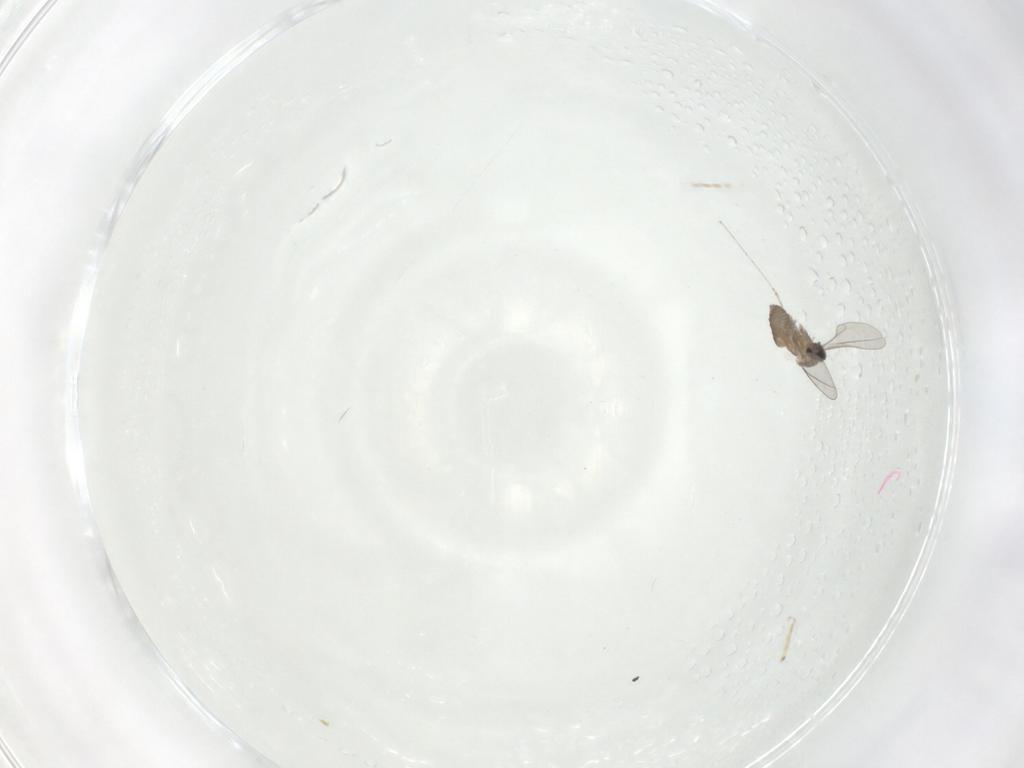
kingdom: Animalia
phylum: Arthropoda
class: Insecta
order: Diptera
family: Cecidomyiidae
